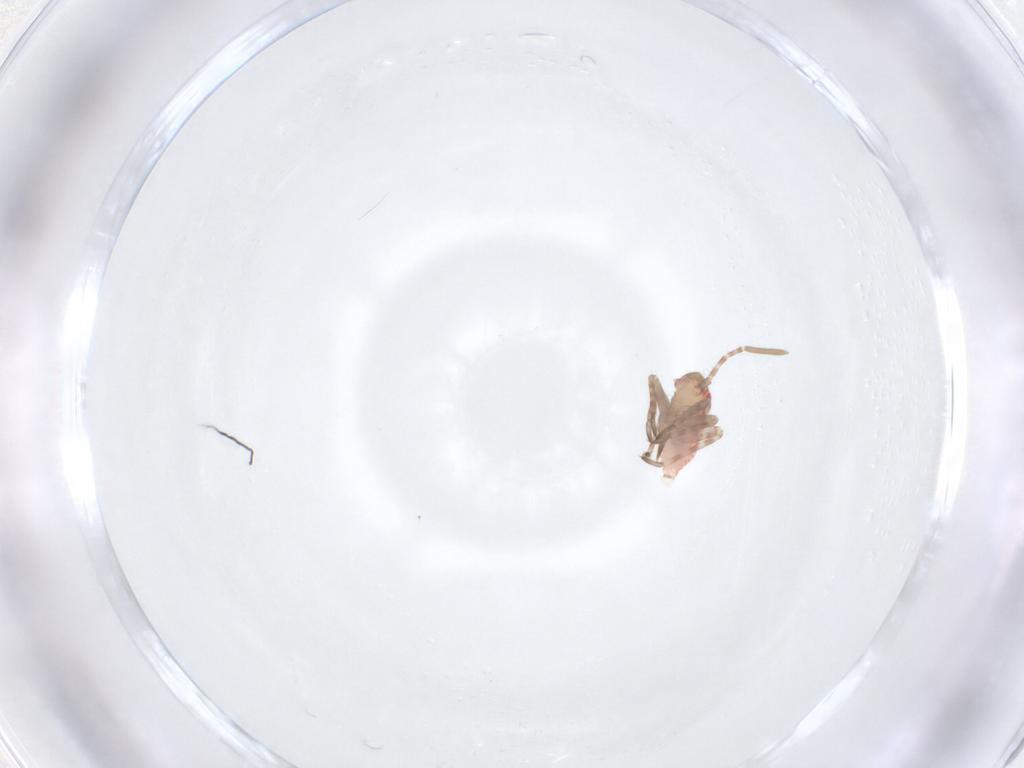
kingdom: Animalia
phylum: Arthropoda
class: Insecta
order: Hemiptera
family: Miridae
